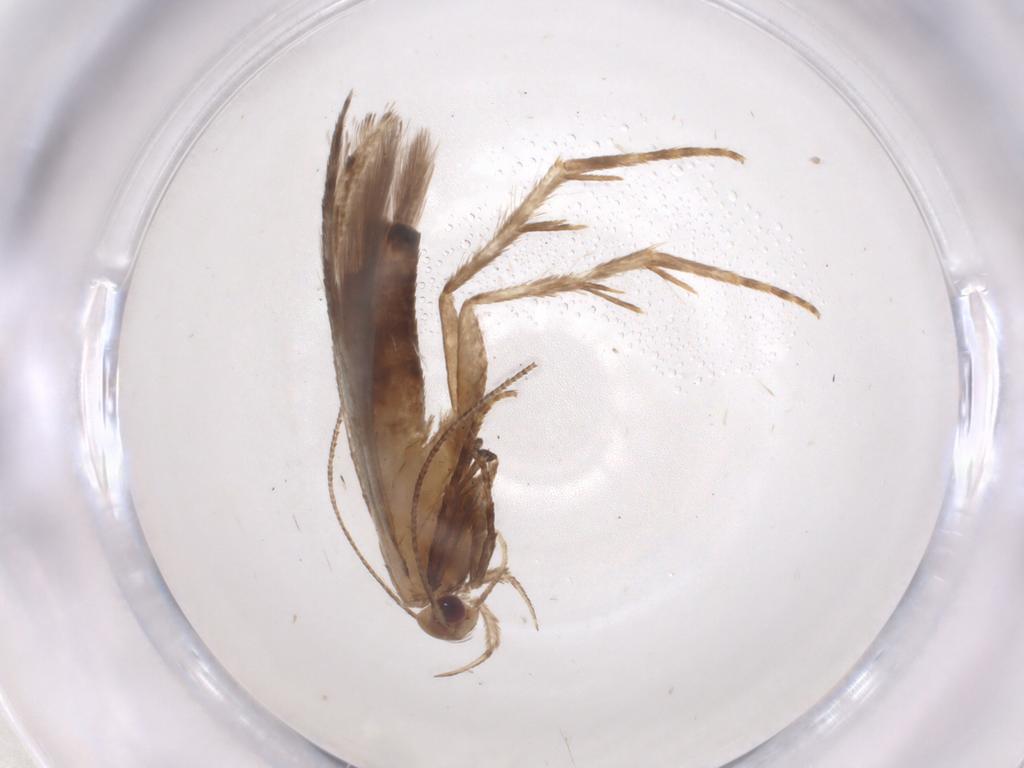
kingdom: Animalia
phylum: Arthropoda
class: Insecta
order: Lepidoptera
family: Gelechiidae
